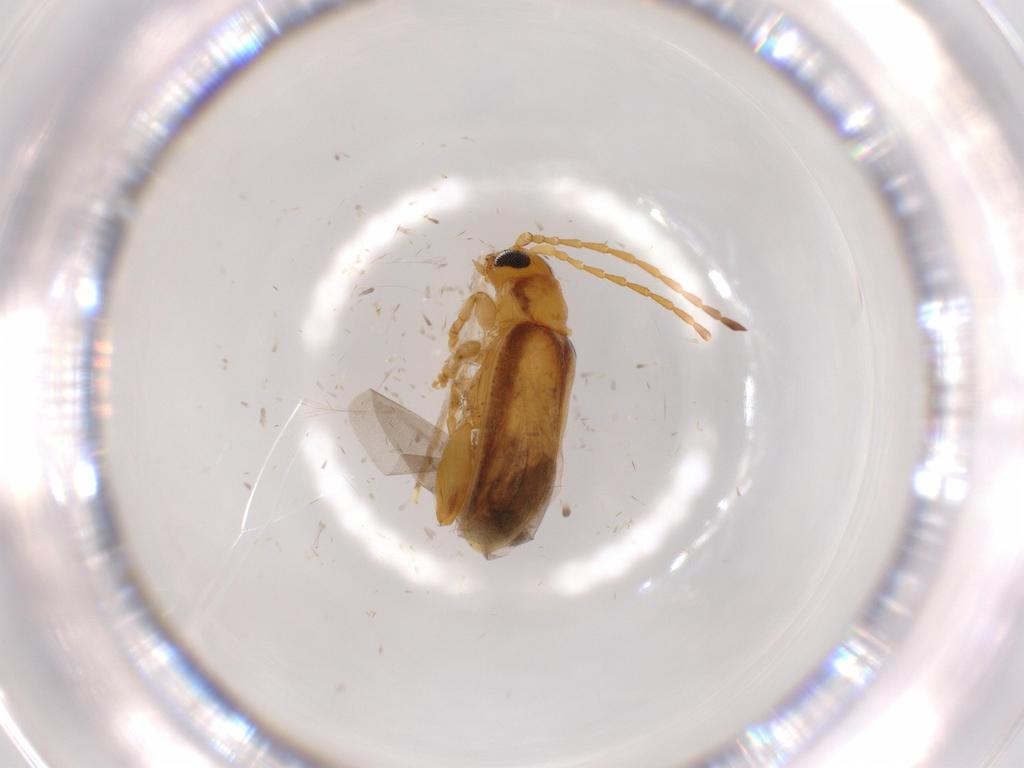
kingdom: Animalia
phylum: Arthropoda
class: Insecta
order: Coleoptera
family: Chrysomelidae
